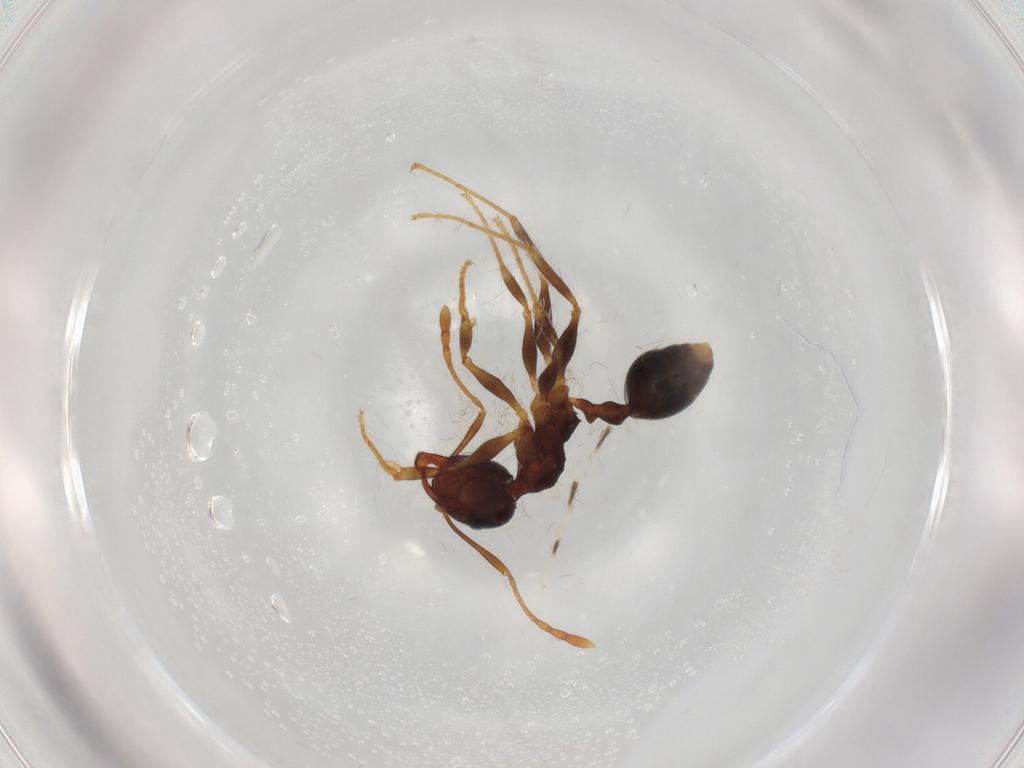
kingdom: Animalia
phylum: Arthropoda
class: Insecta
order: Hymenoptera
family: Formicidae
